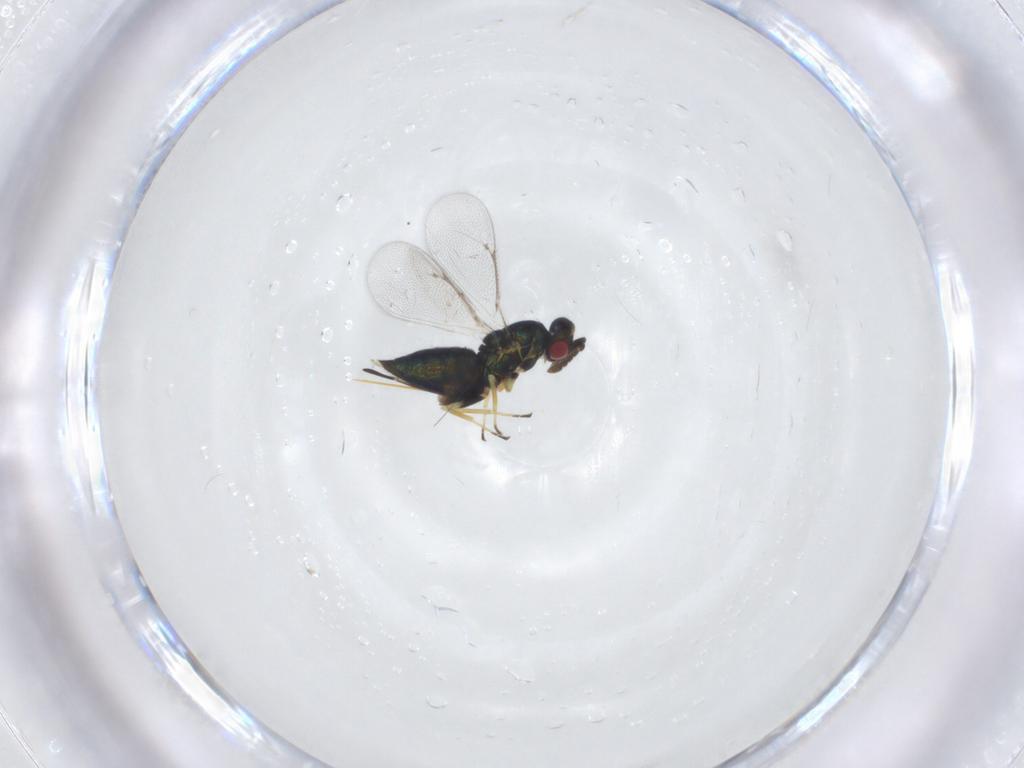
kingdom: Animalia
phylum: Arthropoda
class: Insecta
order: Hymenoptera
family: Eulophidae
